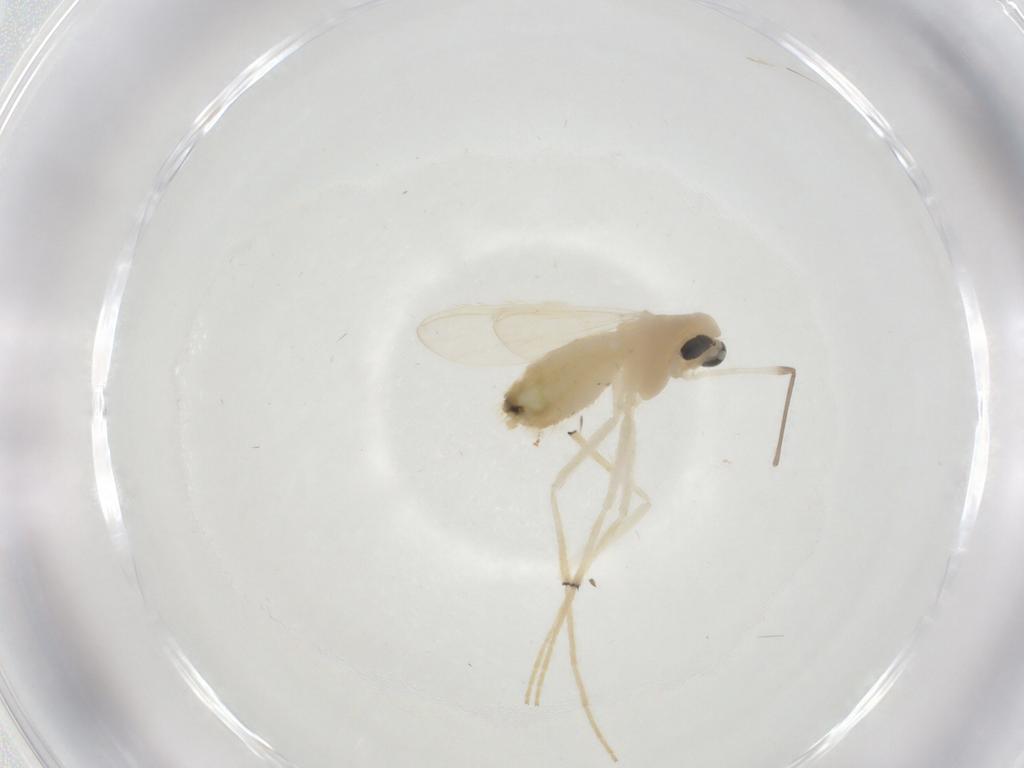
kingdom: Animalia
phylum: Arthropoda
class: Insecta
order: Diptera
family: Chironomidae
